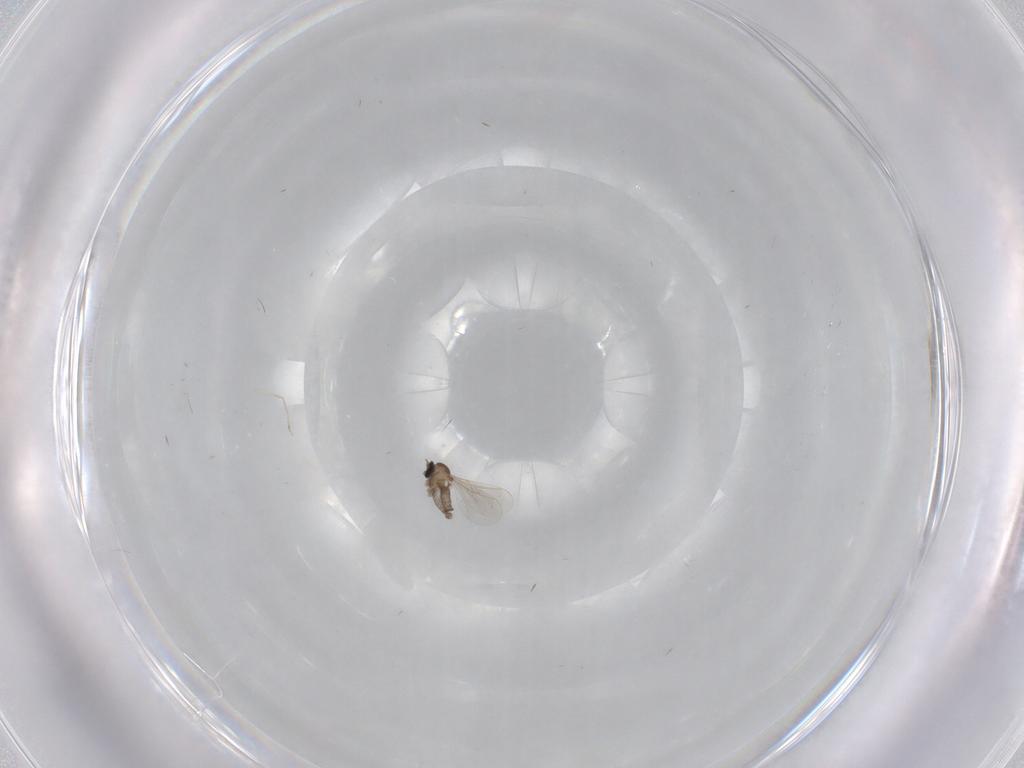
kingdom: Animalia
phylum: Arthropoda
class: Insecta
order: Diptera
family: Cecidomyiidae
